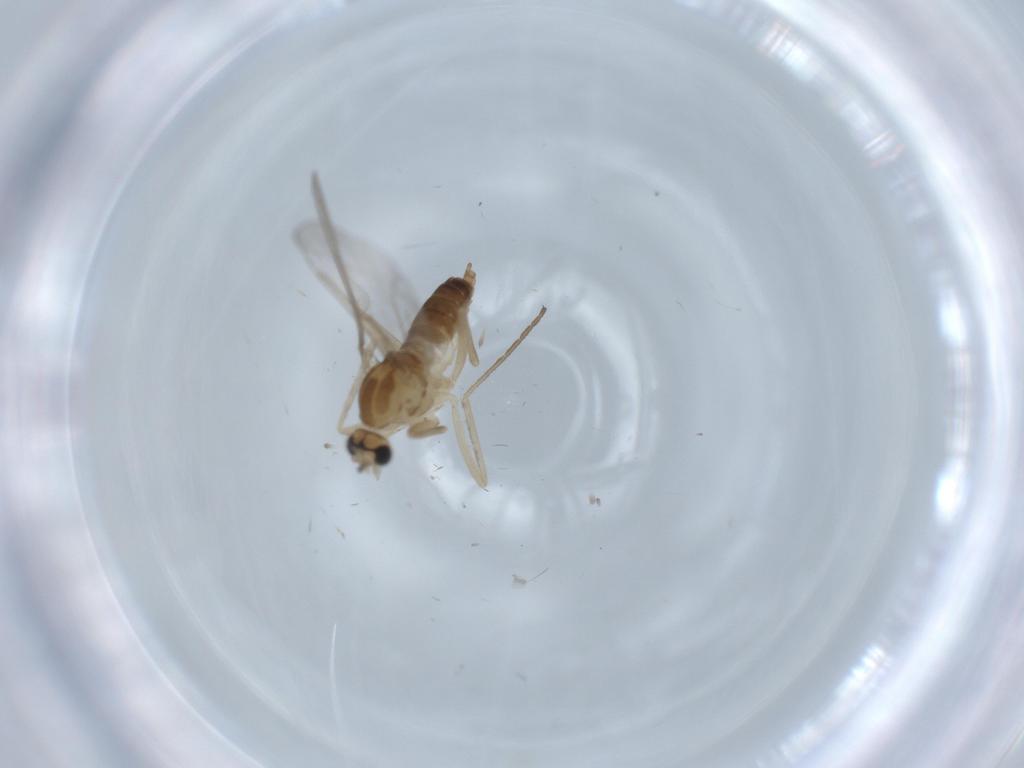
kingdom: Animalia
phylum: Arthropoda
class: Insecta
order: Diptera
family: Cecidomyiidae
